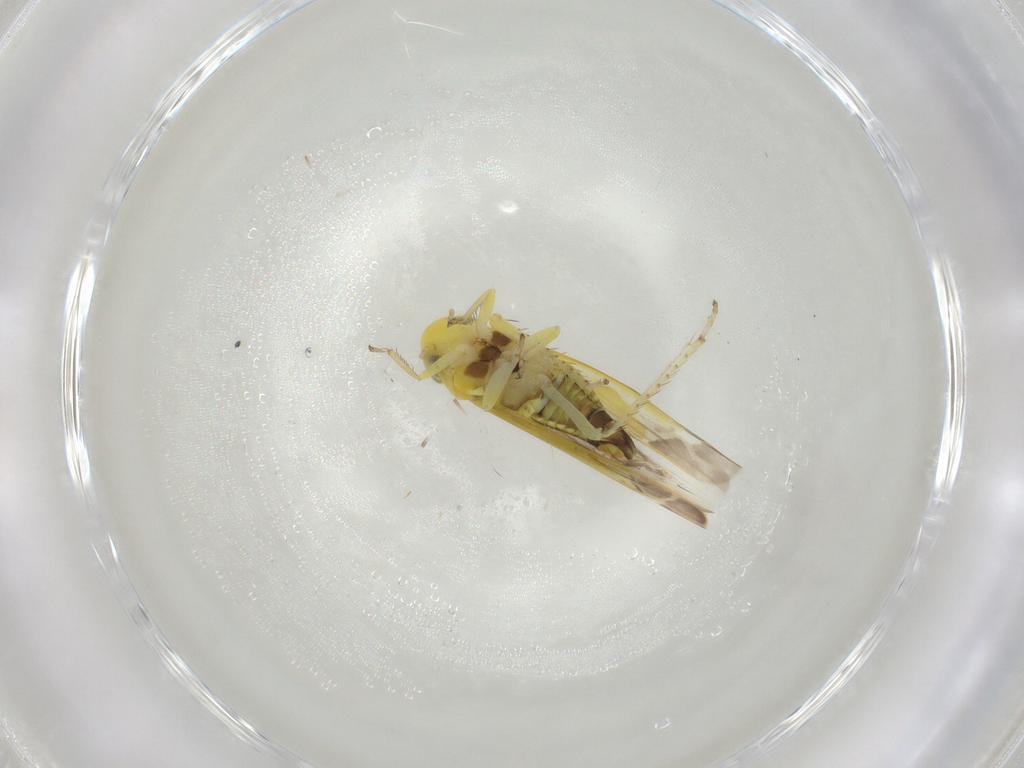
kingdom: Animalia
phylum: Arthropoda
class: Insecta
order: Hemiptera
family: Cicadellidae
